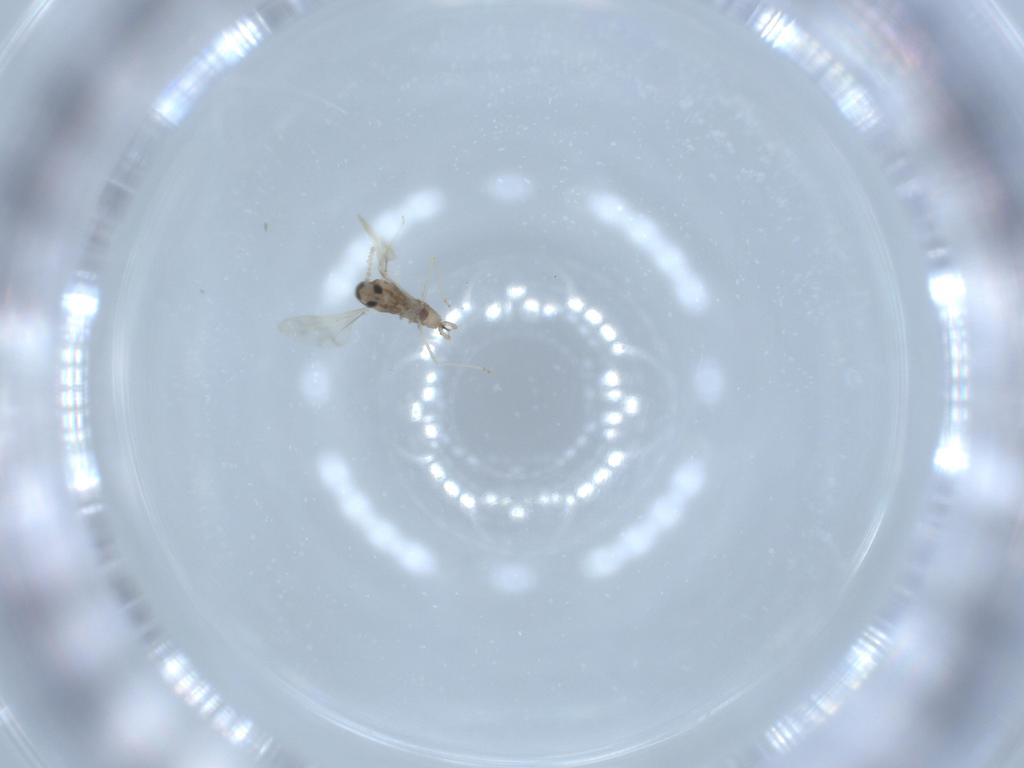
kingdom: Animalia
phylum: Arthropoda
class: Insecta
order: Diptera
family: Cecidomyiidae
